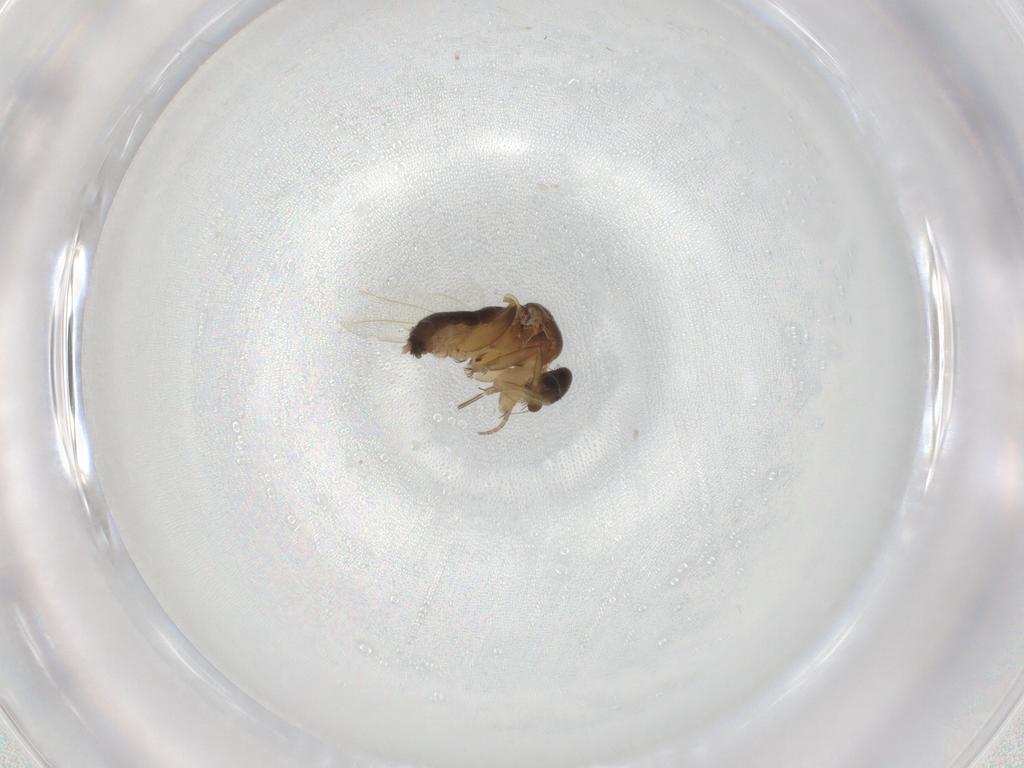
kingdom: Animalia
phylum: Arthropoda
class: Insecta
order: Diptera
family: Phoridae
